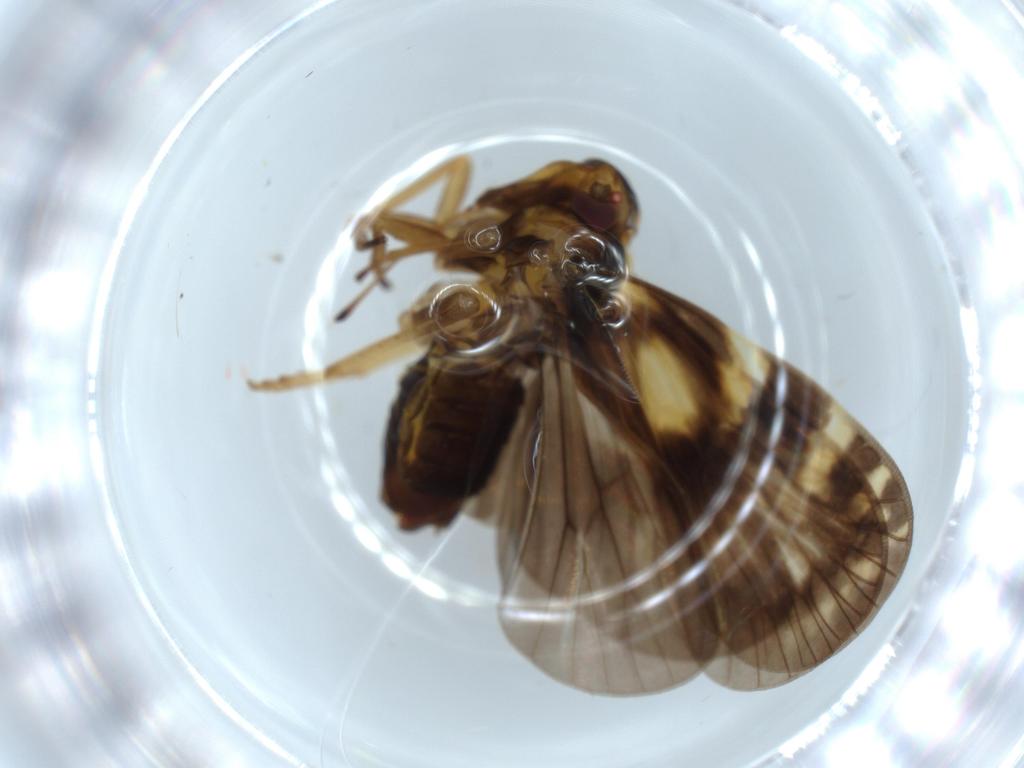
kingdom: Animalia
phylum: Arthropoda
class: Insecta
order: Hemiptera
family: Cixiidae
